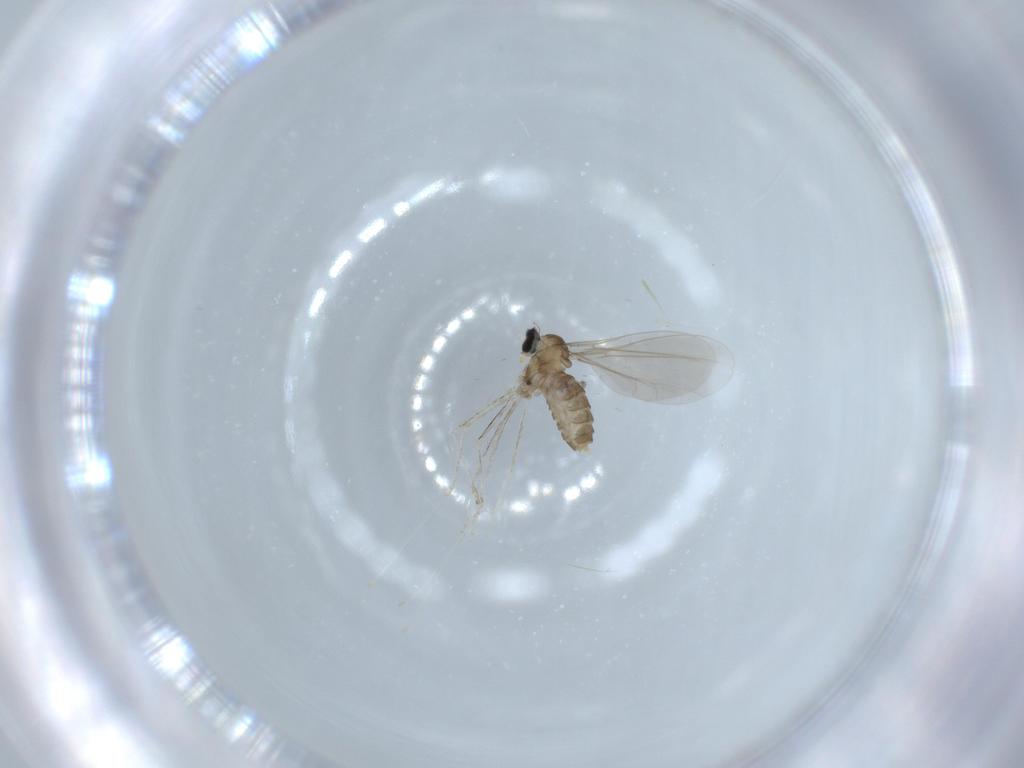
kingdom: Animalia
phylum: Arthropoda
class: Insecta
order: Diptera
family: Chironomidae
